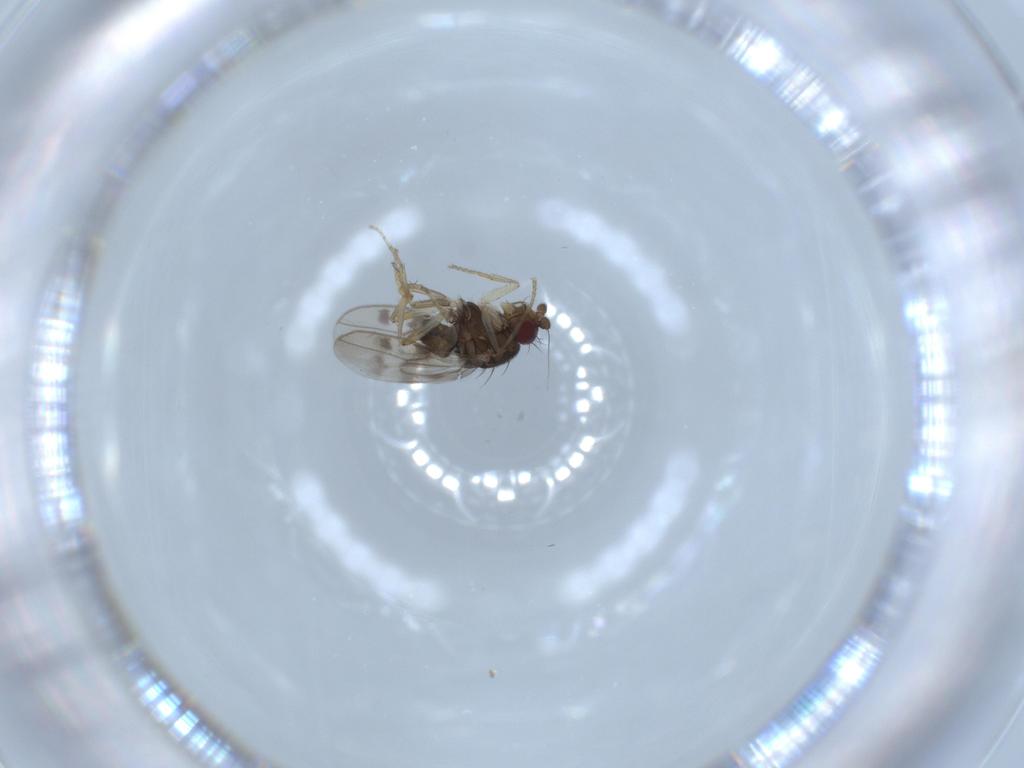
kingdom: Animalia
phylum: Arthropoda
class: Insecta
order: Diptera
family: Sphaeroceridae
